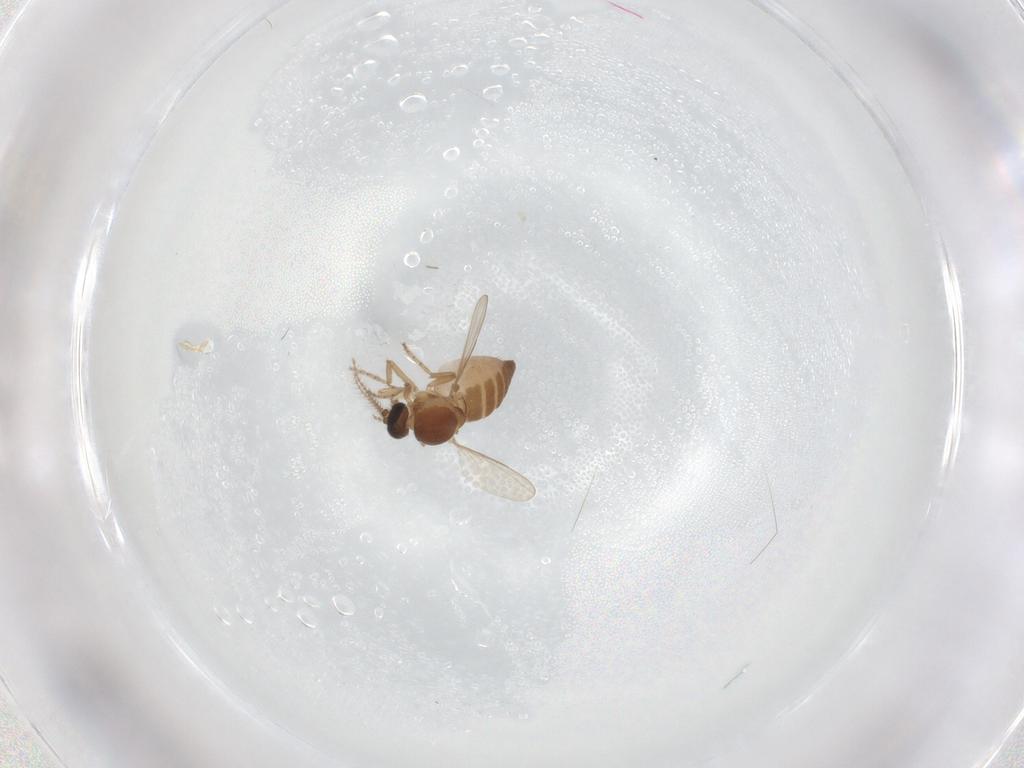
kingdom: Animalia
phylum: Arthropoda
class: Insecta
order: Diptera
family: Ceratopogonidae
